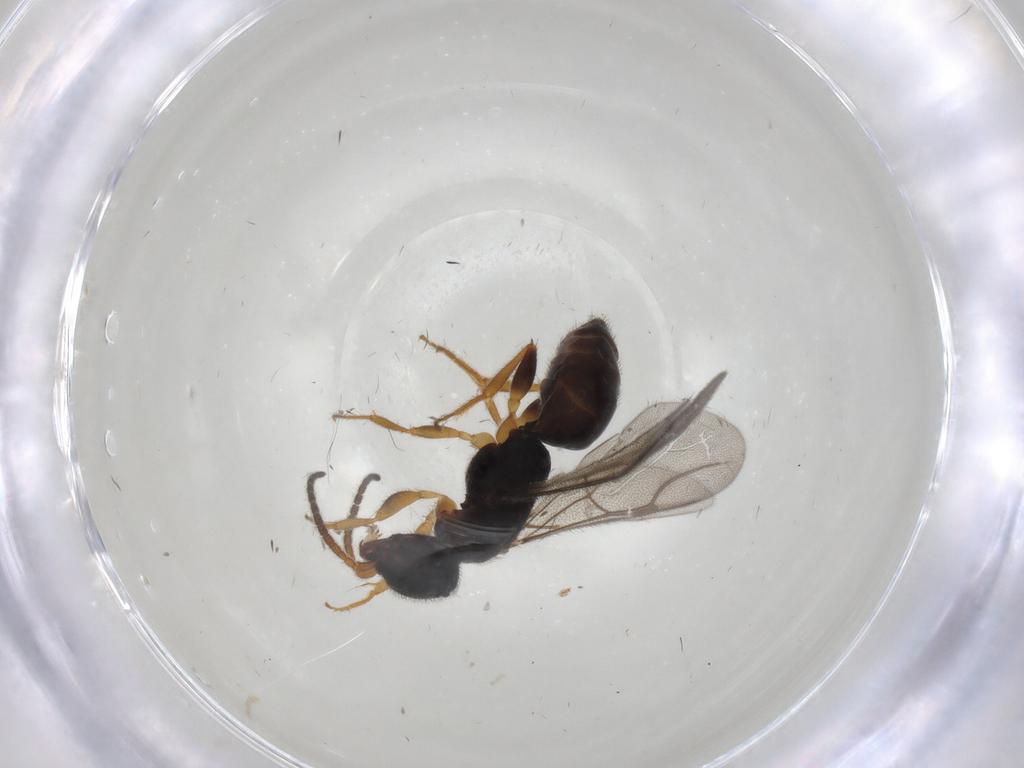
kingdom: Animalia
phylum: Arthropoda
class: Insecta
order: Hymenoptera
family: Bethylidae
